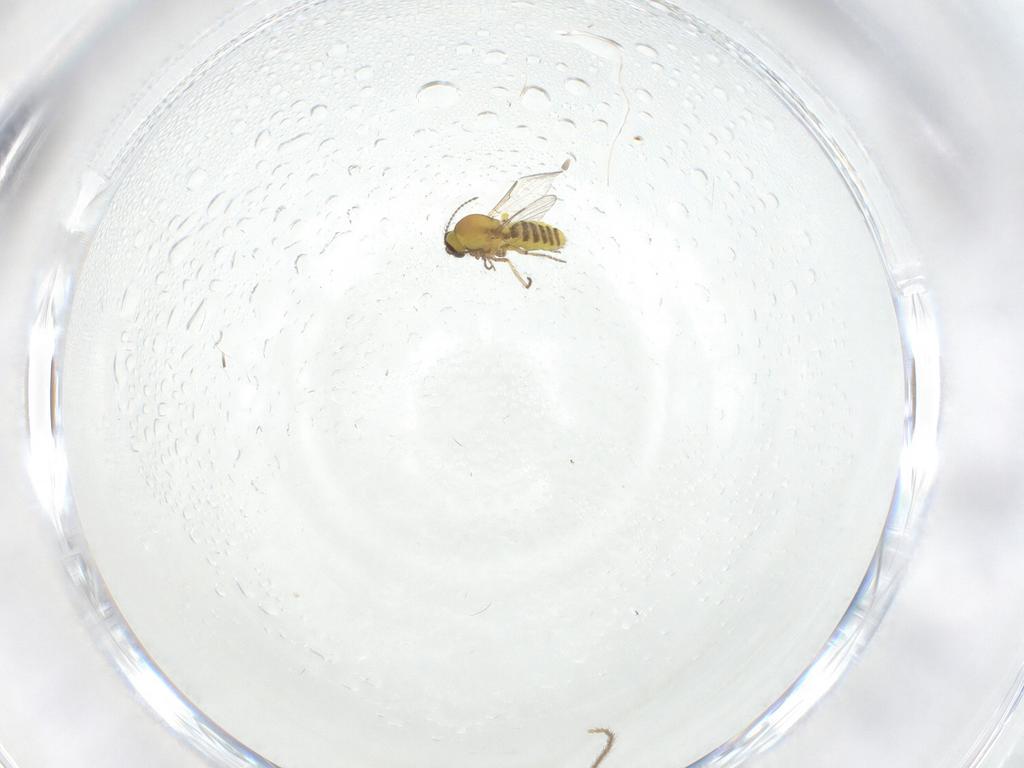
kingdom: Animalia
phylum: Arthropoda
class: Insecta
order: Diptera
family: Ceratopogonidae
